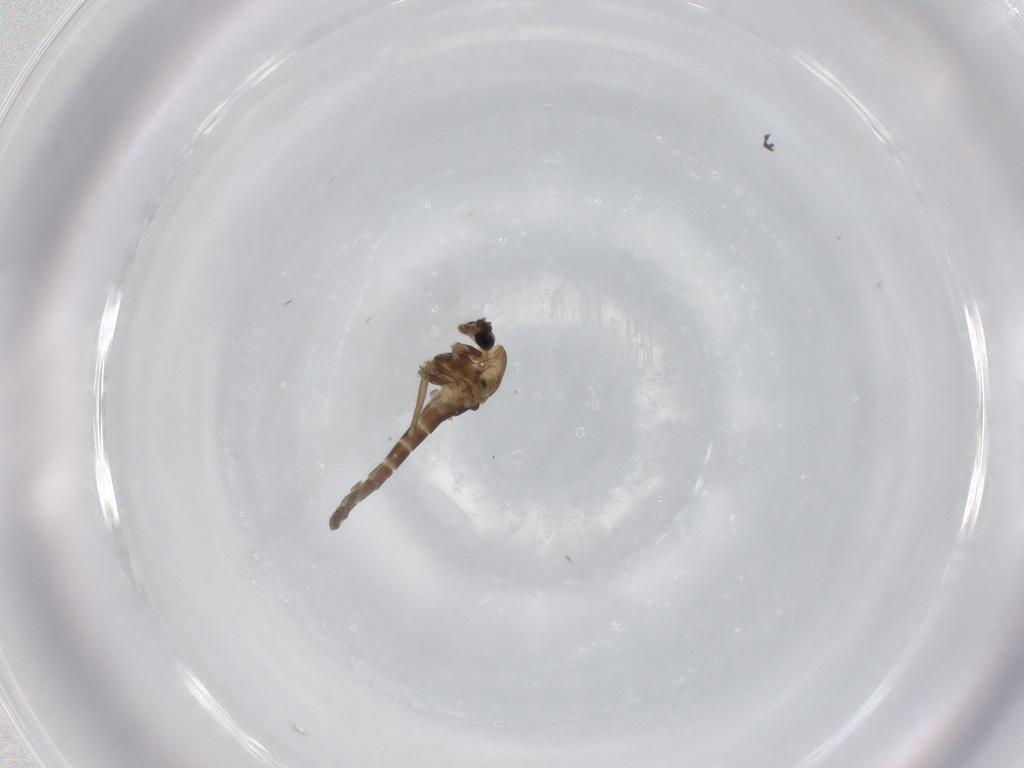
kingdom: Animalia
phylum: Arthropoda
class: Insecta
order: Diptera
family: Chironomidae
